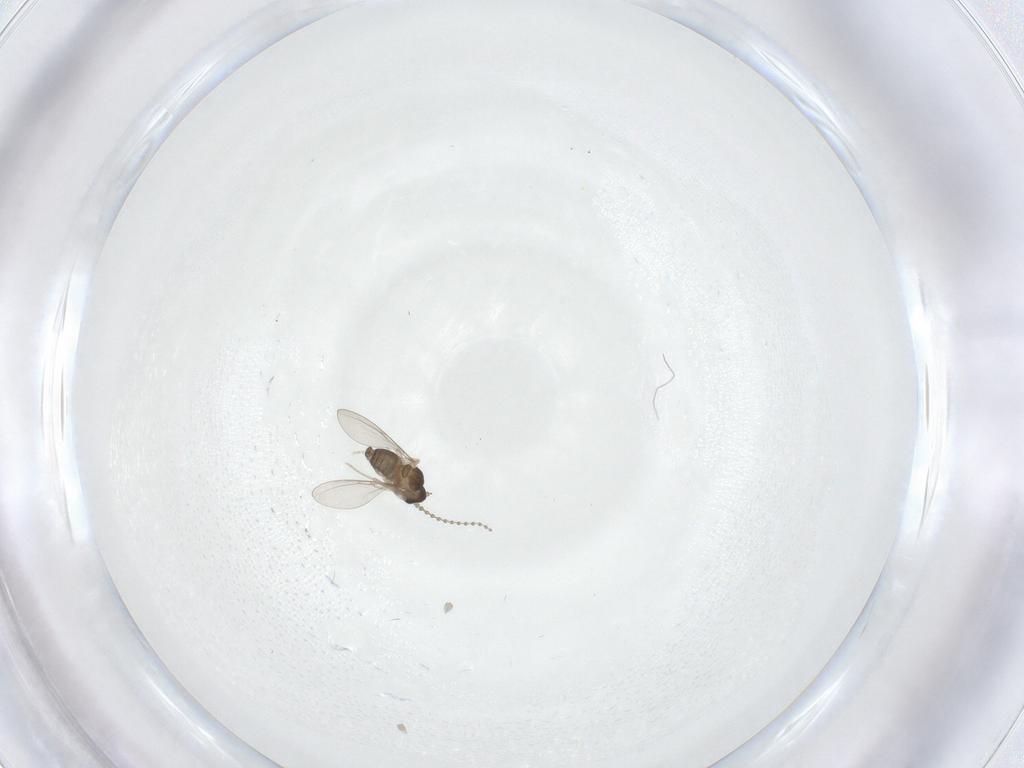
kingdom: Animalia
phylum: Arthropoda
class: Insecta
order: Diptera
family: Cecidomyiidae
